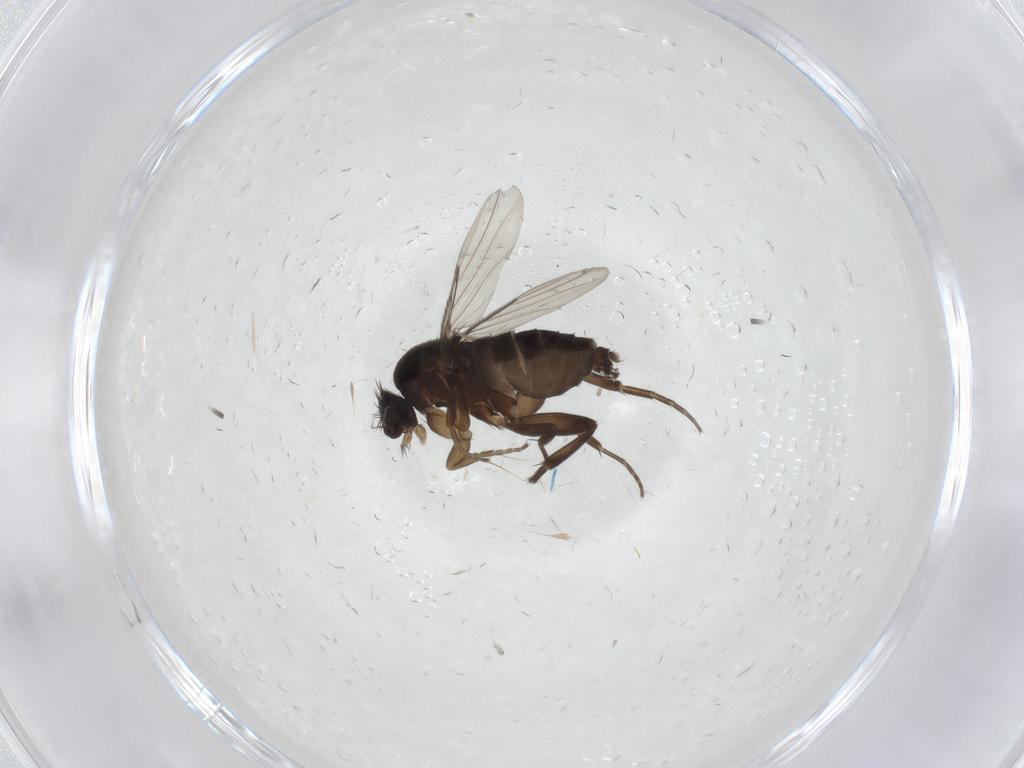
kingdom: Animalia
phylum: Arthropoda
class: Insecta
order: Diptera
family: Phoridae
